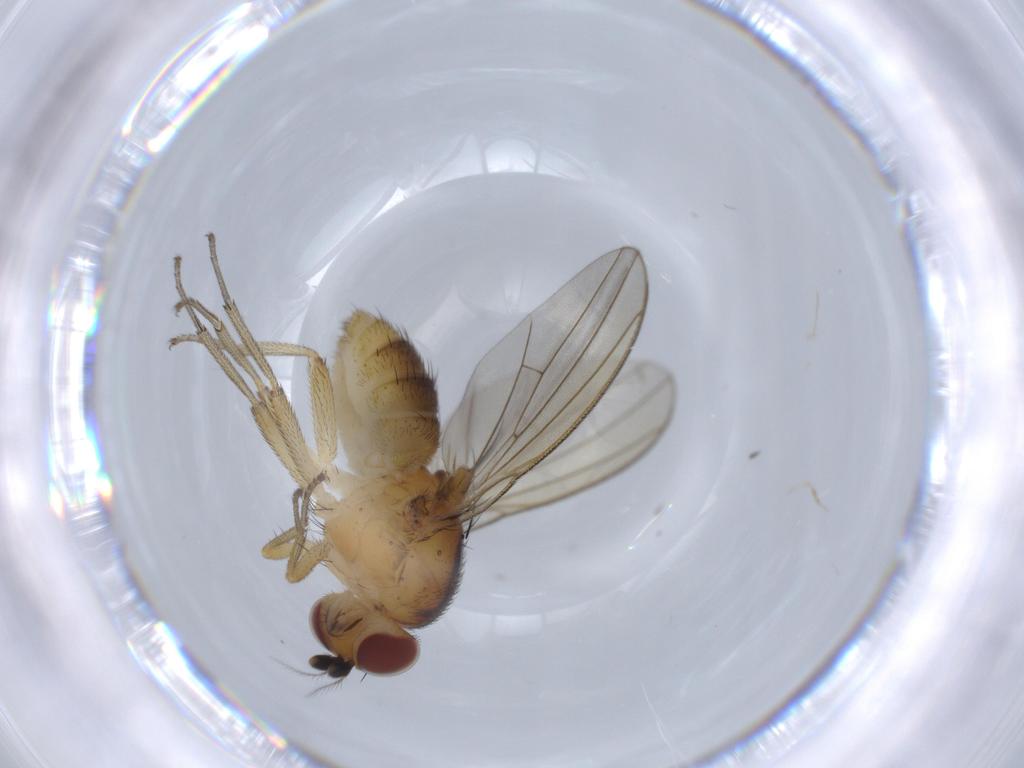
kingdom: Animalia
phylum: Arthropoda
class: Insecta
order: Diptera
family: Lauxaniidae
